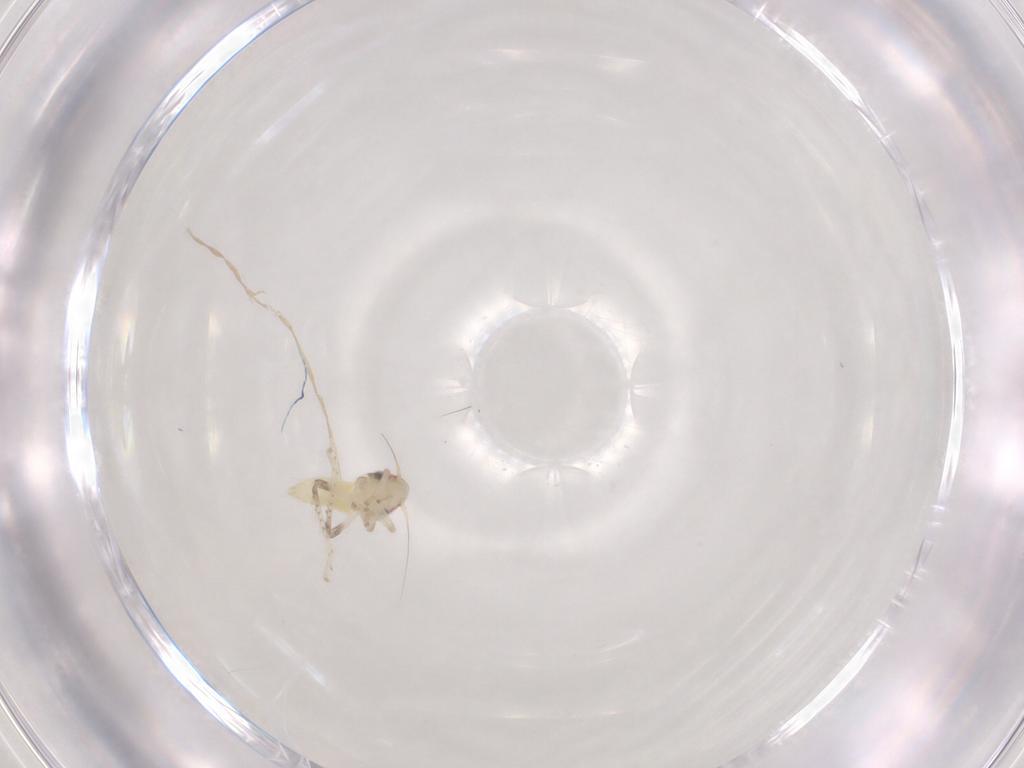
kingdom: Animalia
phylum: Arthropoda
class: Insecta
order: Hemiptera
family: Cicadellidae
